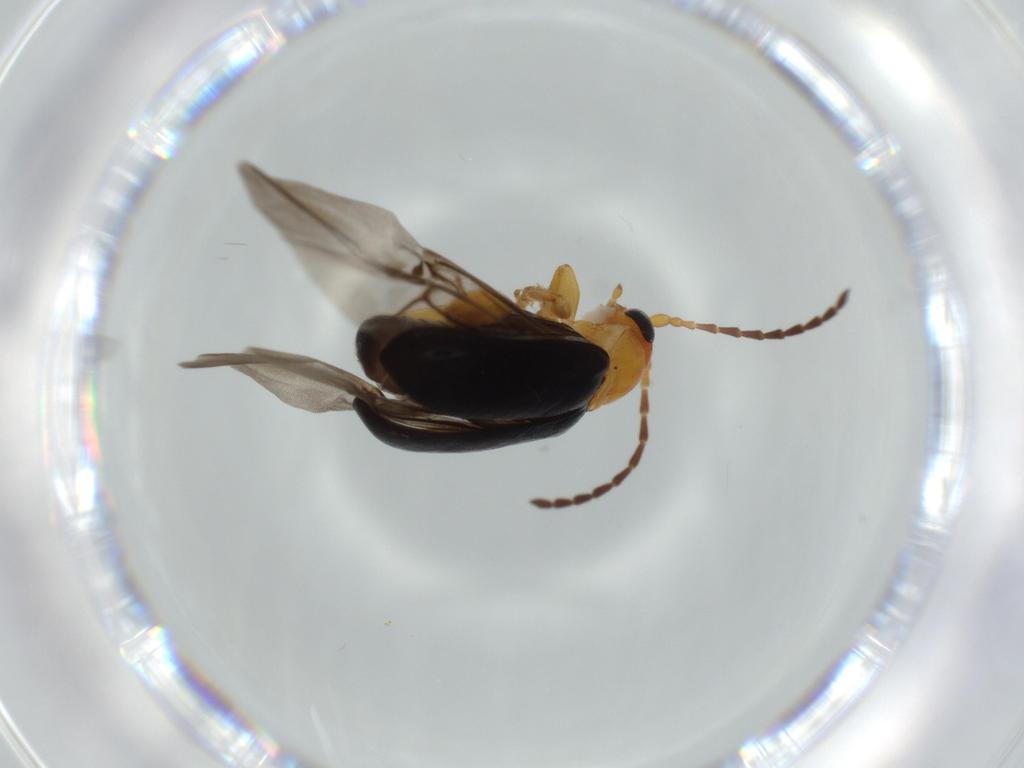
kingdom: Animalia
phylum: Arthropoda
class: Insecta
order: Coleoptera
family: Chrysomelidae
